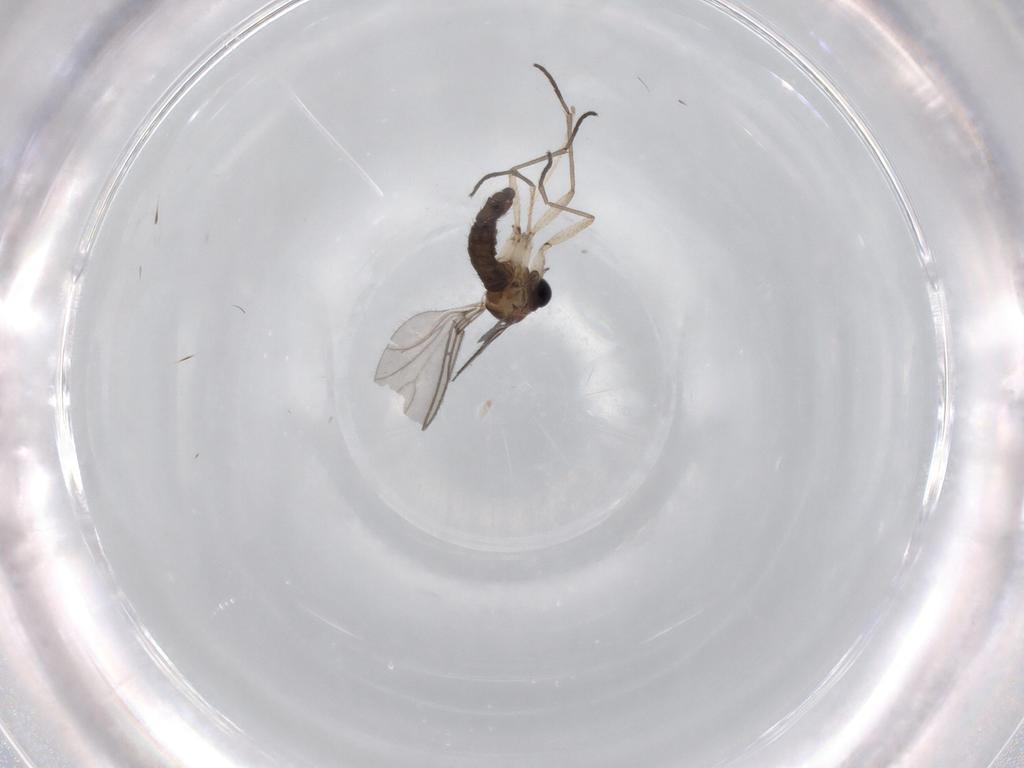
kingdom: Animalia
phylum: Arthropoda
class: Insecta
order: Diptera
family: Sciaridae
